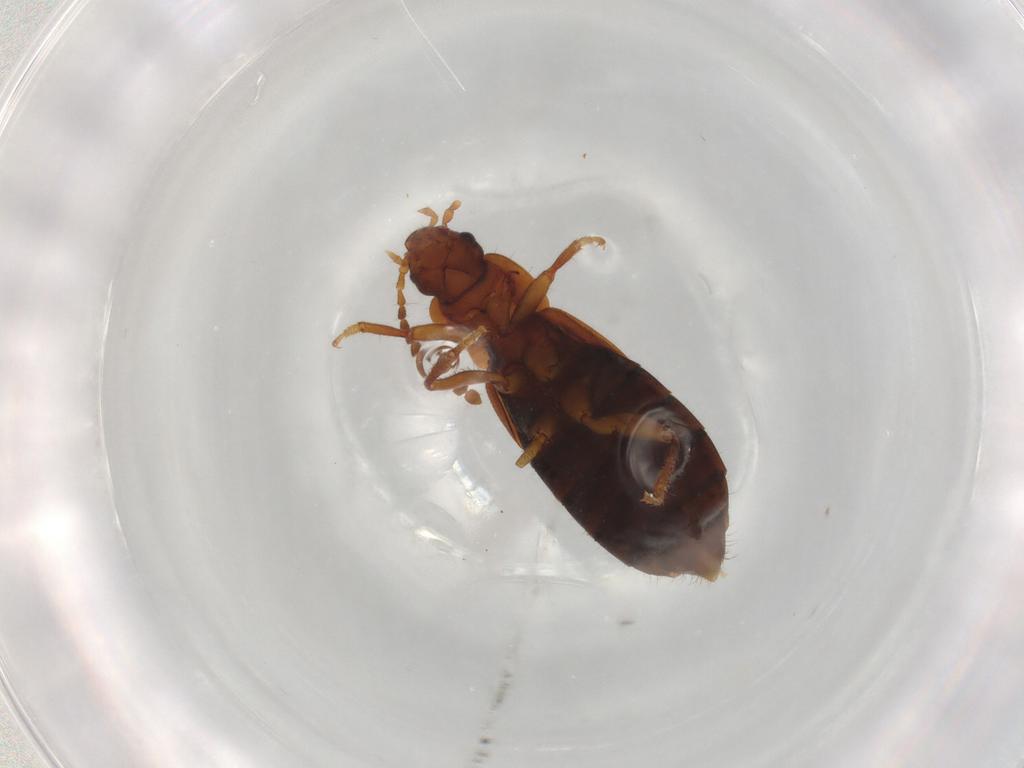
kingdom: Animalia
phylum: Arthropoda
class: Insecta
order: Coleoptera
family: Staphylinidae
